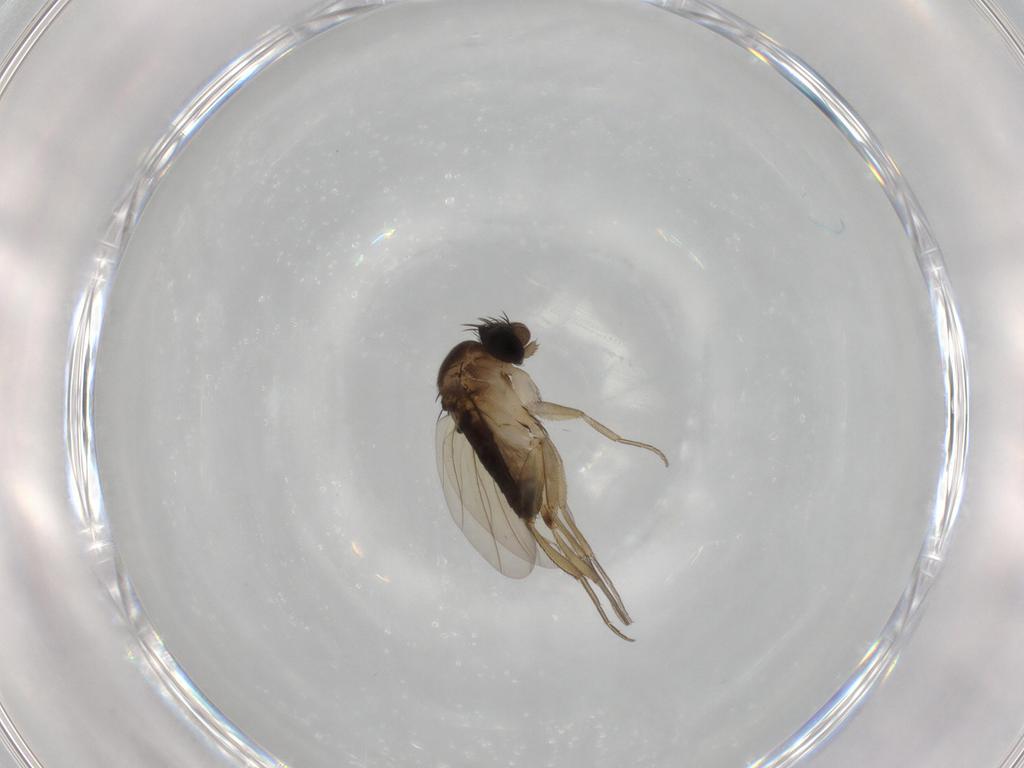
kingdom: Animalia
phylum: Arthropoda
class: Insecta
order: Diptera
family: Phoridae
